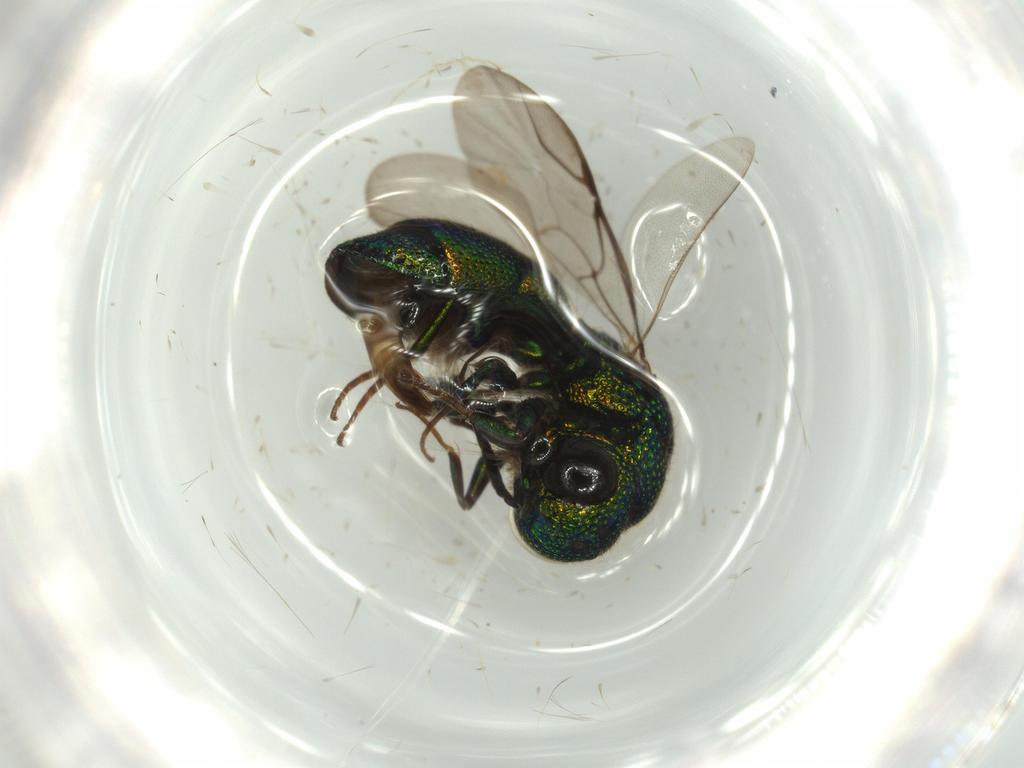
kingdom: Animalia
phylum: Arthropoda
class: Insecta
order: Hymenoptera
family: Chrysididae
